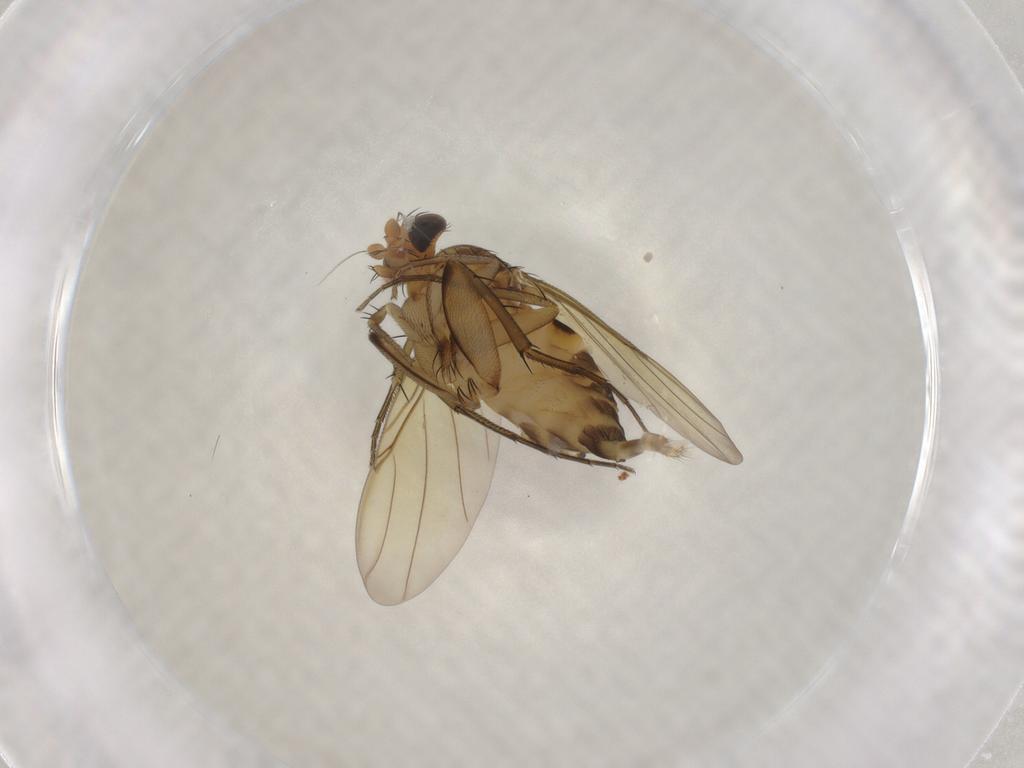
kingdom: Animalia
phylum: Arthropoda
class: Insecta
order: Diptera
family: Phoridae
